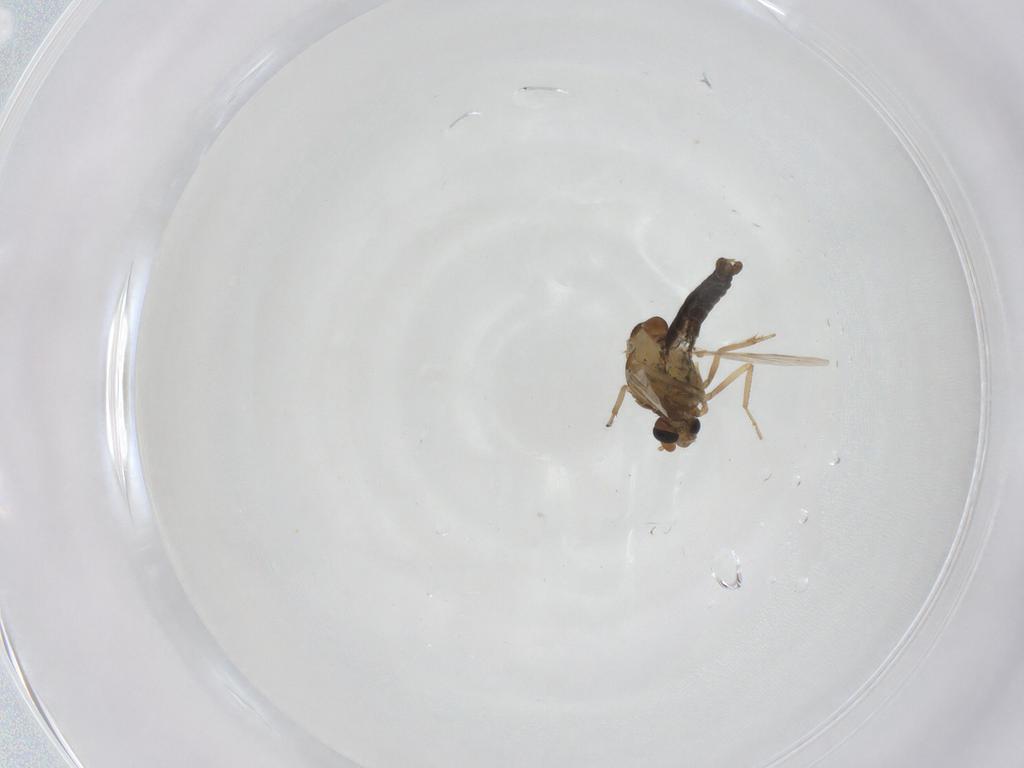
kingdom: Animalia
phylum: Arthropoda
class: Insecta
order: Diptera
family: Ceratopogonidae
